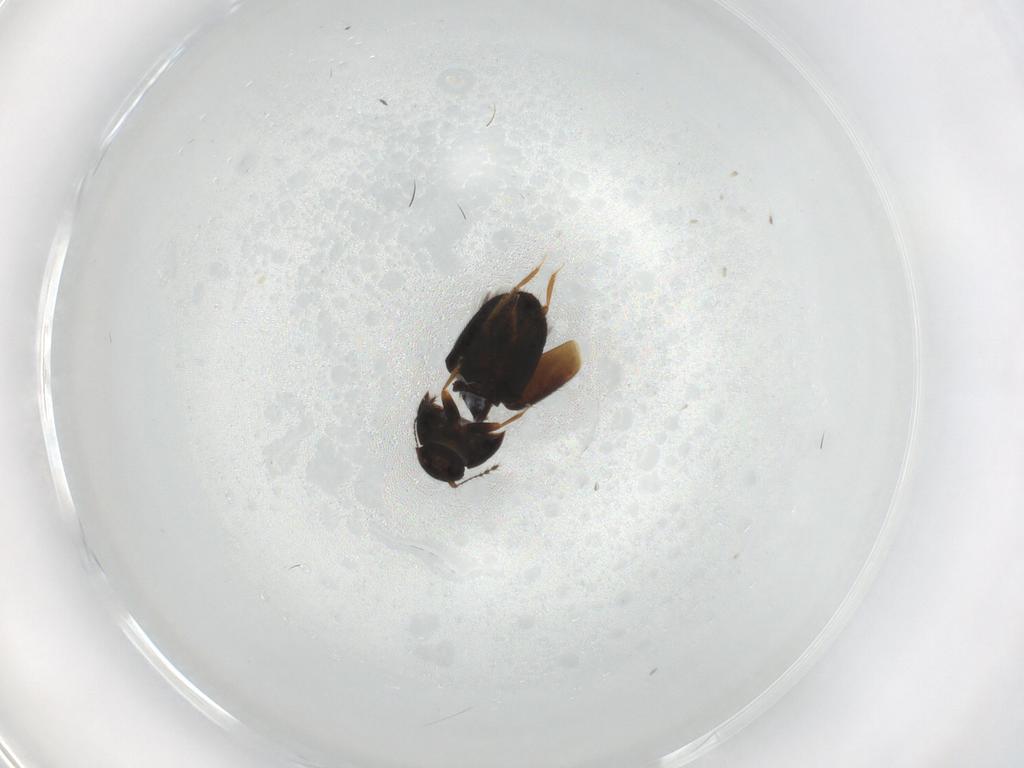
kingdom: Animalia
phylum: Arthropoda
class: Insecta
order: Coleoptera
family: Ptiliidae
